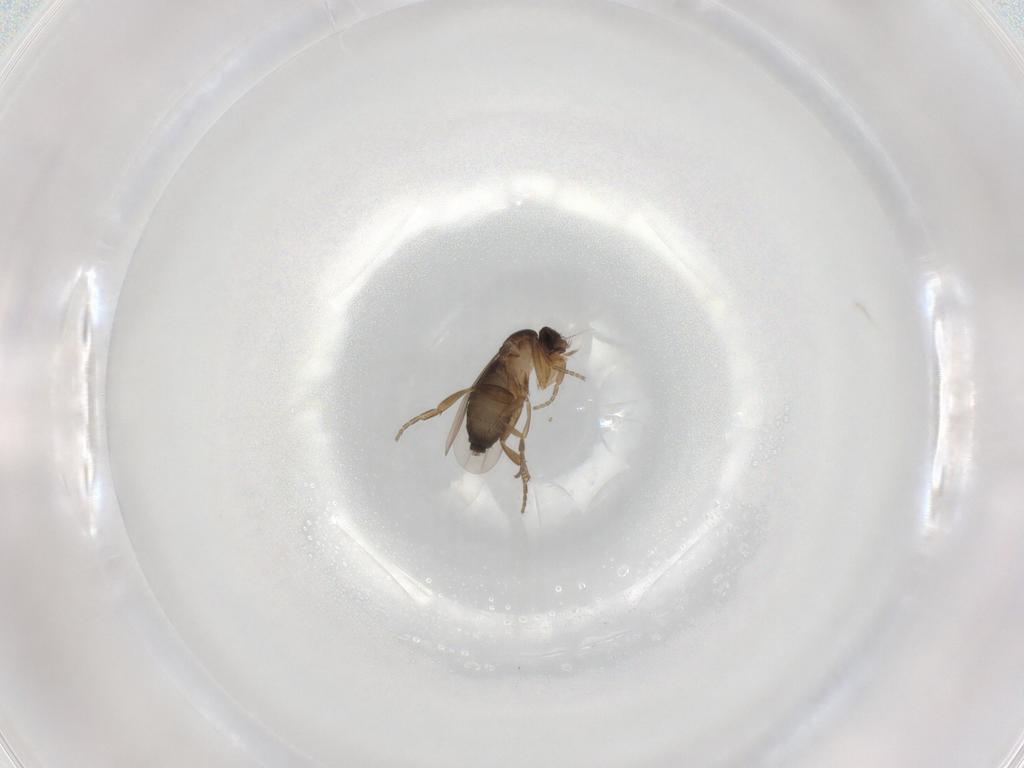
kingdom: Animalia
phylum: Arthropoda
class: Insecta
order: Diptera
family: Phoridae
